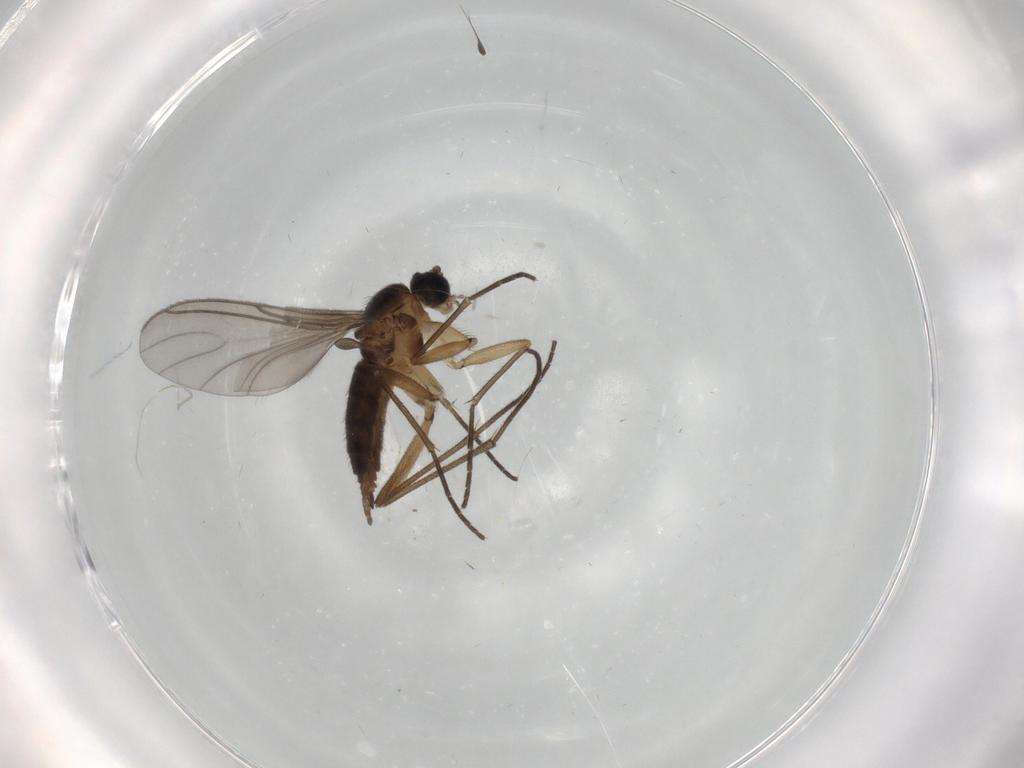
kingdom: Animalia
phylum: Arthropoda
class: Insecta
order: Diptera
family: Sciaridae
